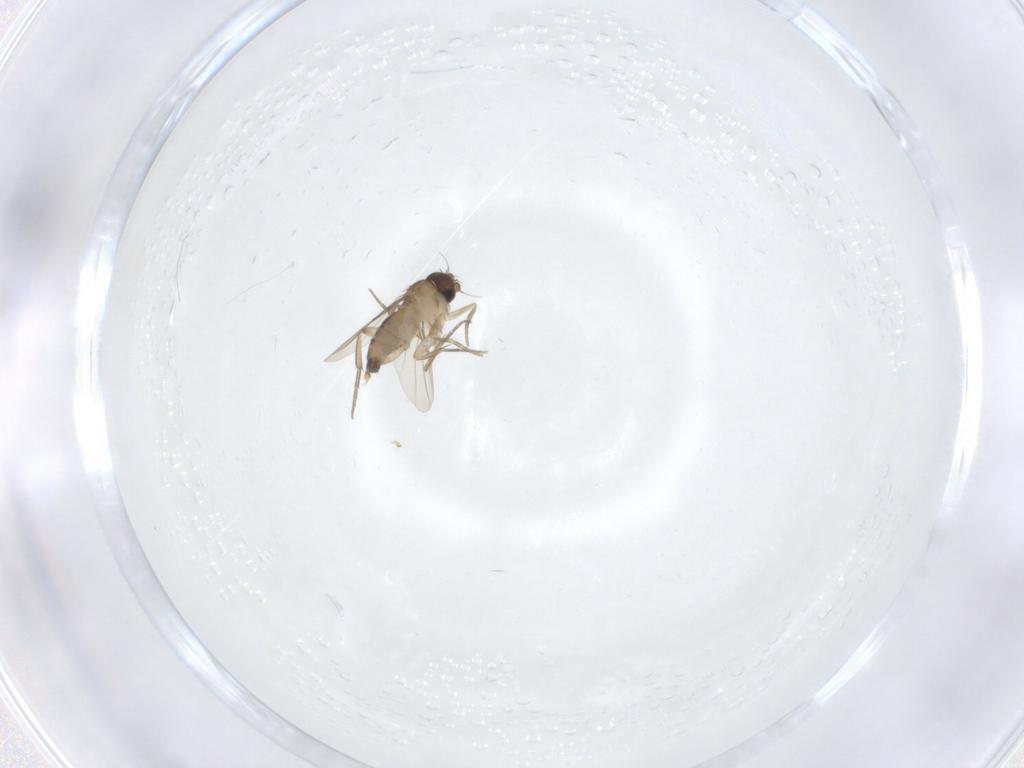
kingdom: Animalia
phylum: Arthropoda
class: Insecta
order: Diptera
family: Phoridae
